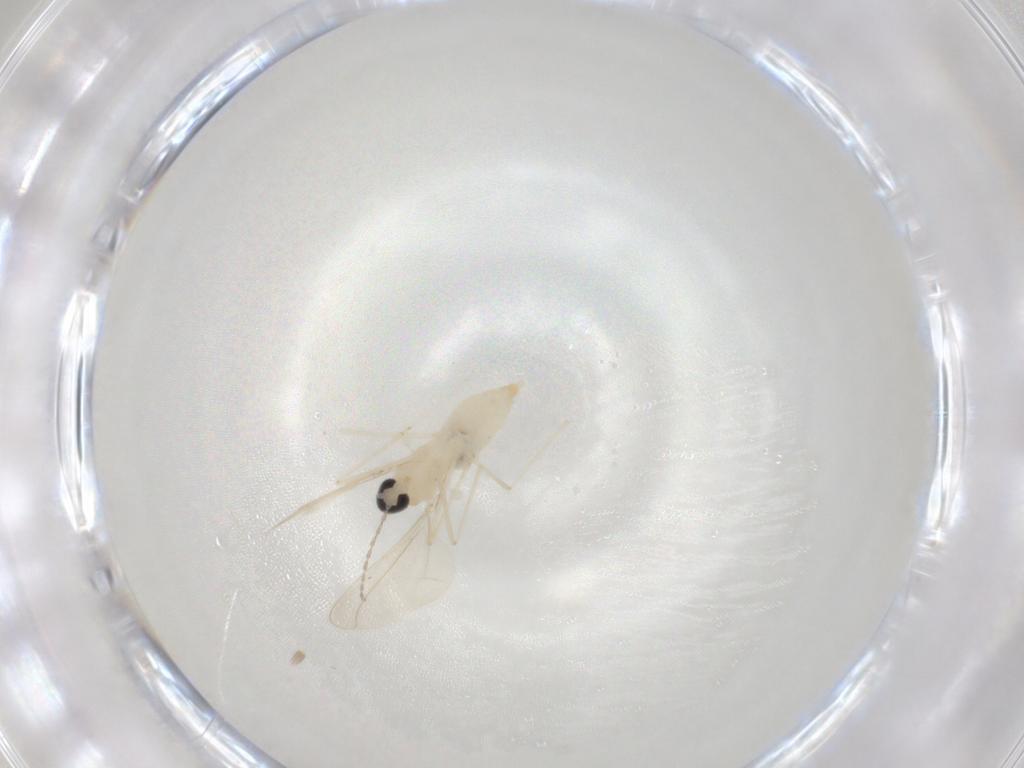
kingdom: Animalia
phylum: Arthropoda
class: Insecta
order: Diptera
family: Cecidomyiidae
